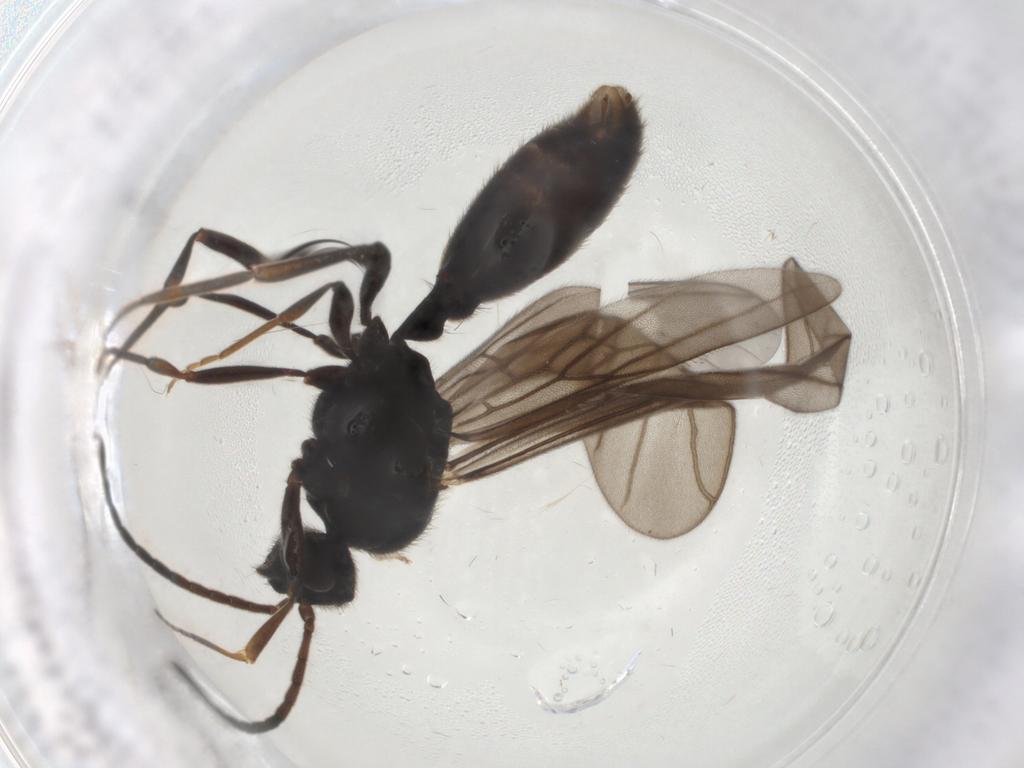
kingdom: Animalia
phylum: Arthropoda
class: Insecta
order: Hymenoptera
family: Formicidae
